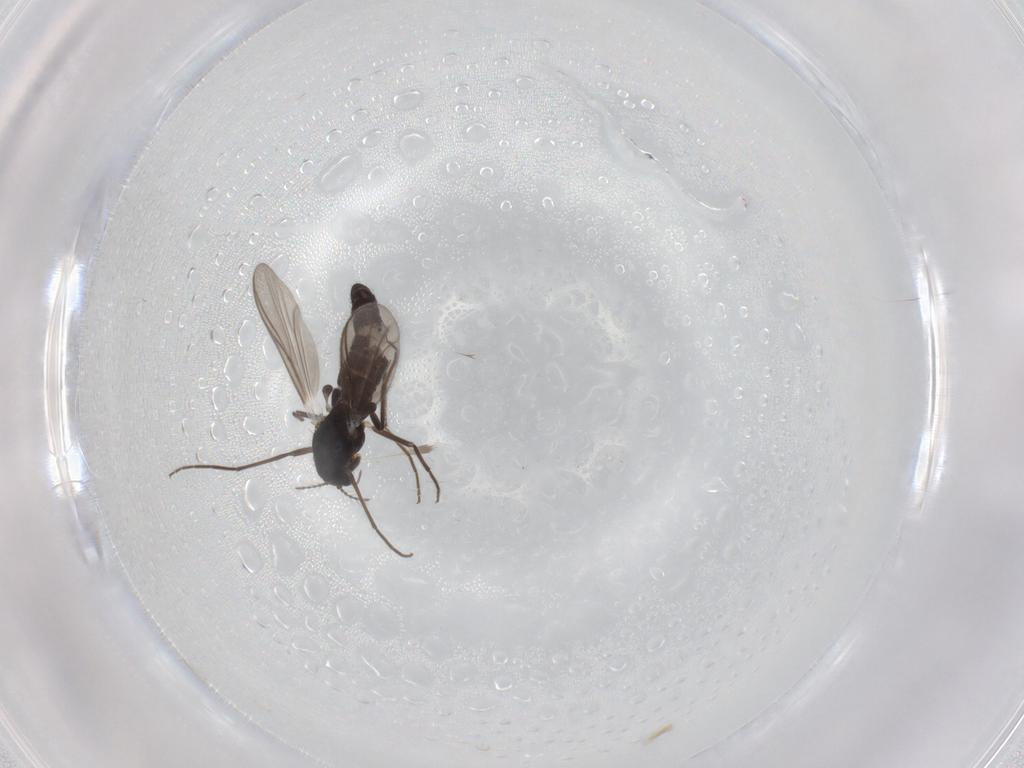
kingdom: Animalia
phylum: Arthropoda
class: Insecta
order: Diptera
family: Chironomidae
